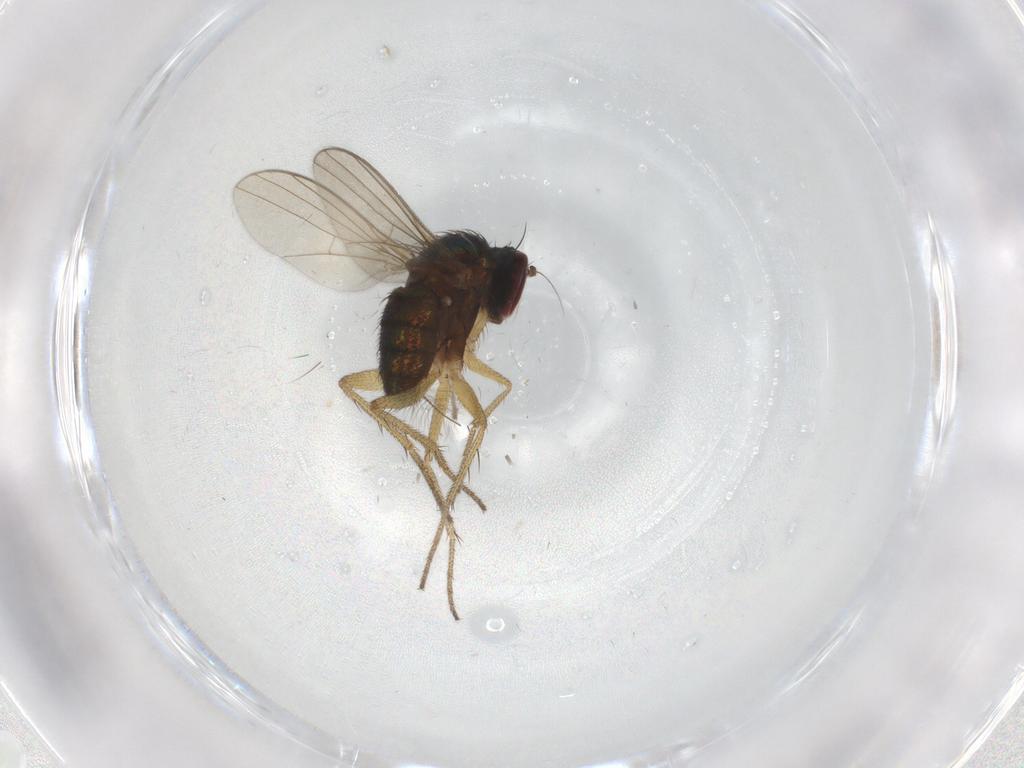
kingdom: Animalia
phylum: Arthropoda
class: Insecta
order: Diptera
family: Chironomidae
